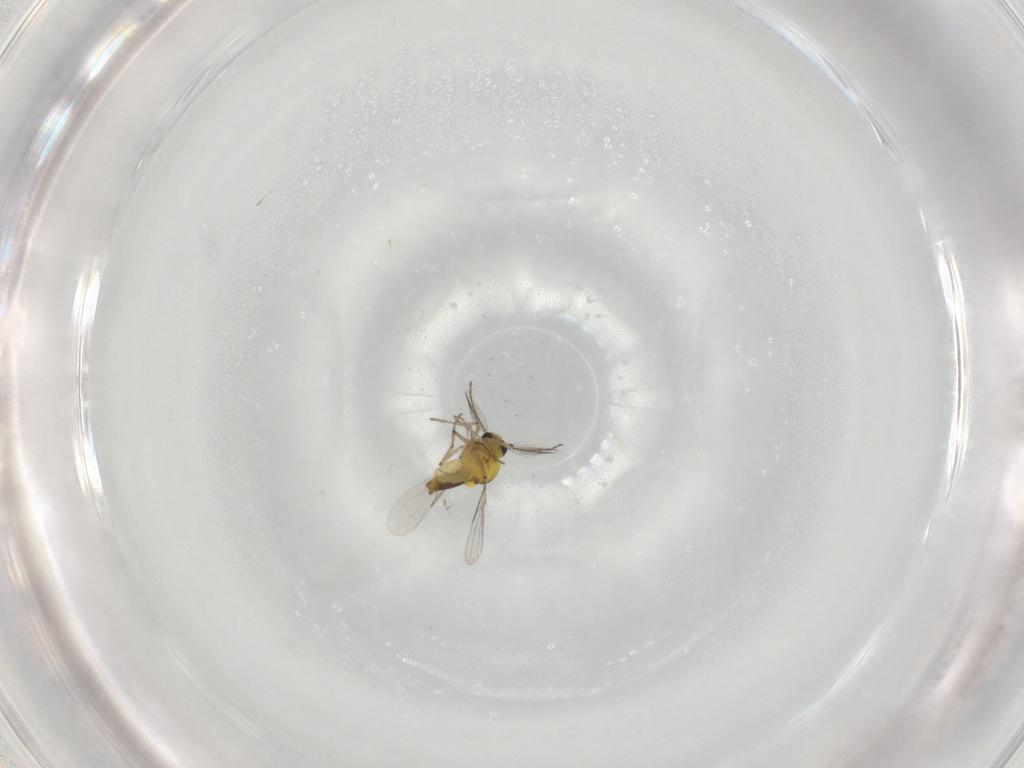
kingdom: Animalia
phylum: Arthropoda
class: Insecta
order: Diptera
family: Ceratopogonidae
